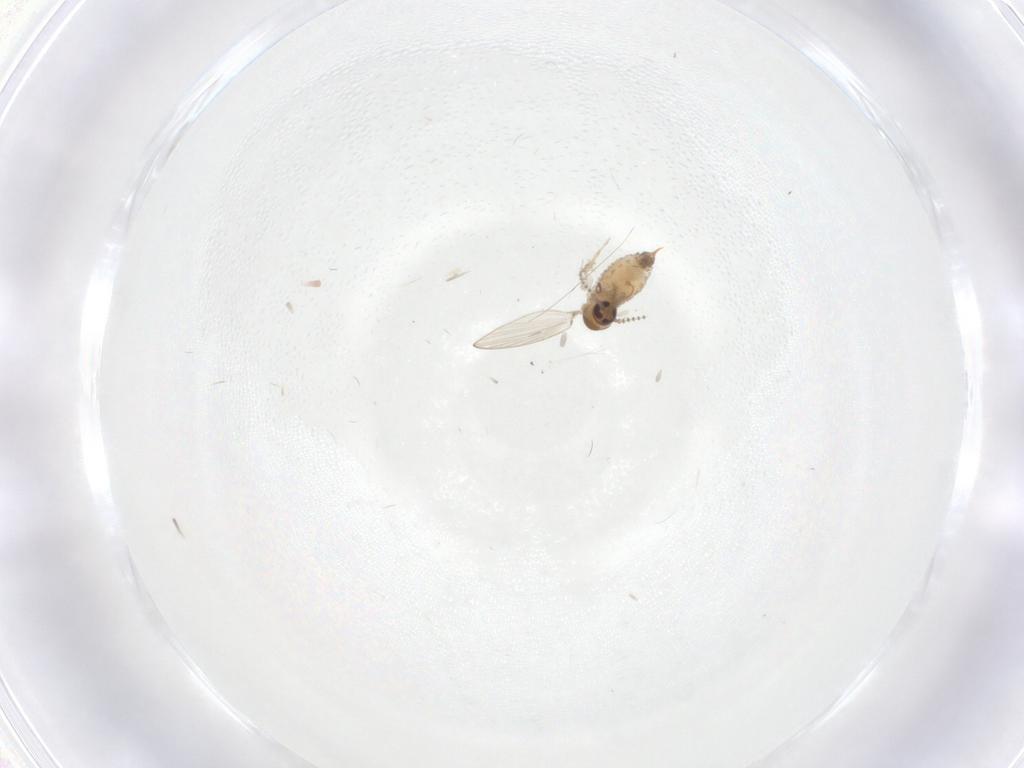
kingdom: Animalia
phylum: Arthropoda
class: Insecta
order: Diptera
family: Psychodidae
